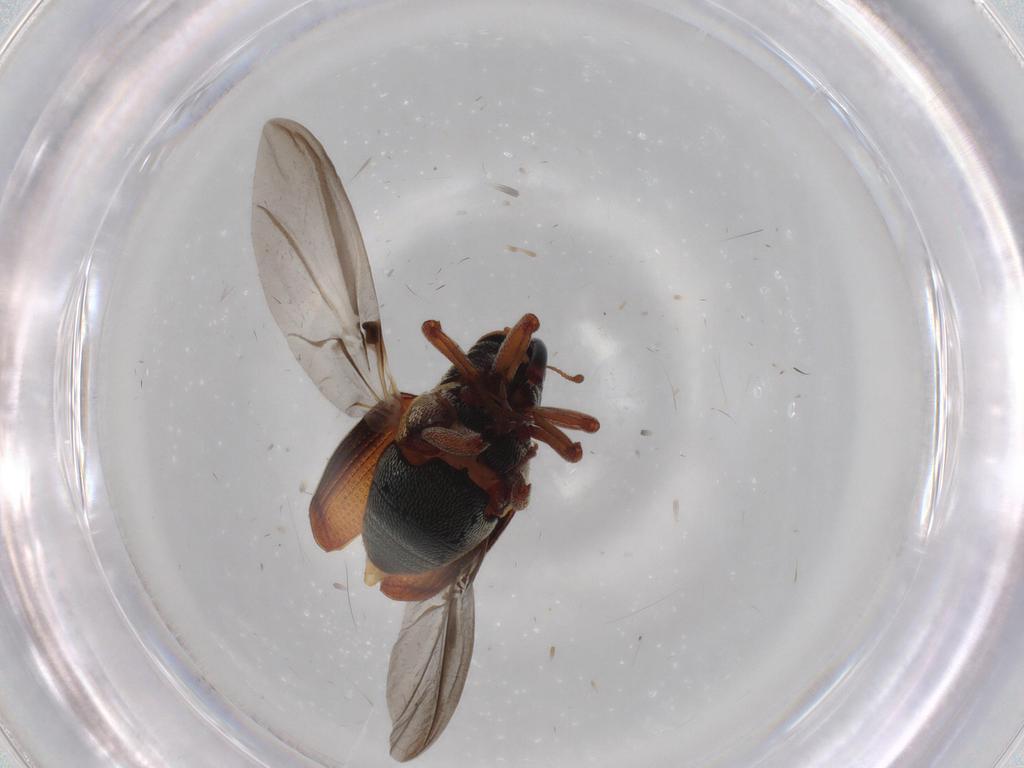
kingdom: Animalia
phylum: Arthropoda
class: Insecta
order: Coleoptera
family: Curculionidae
